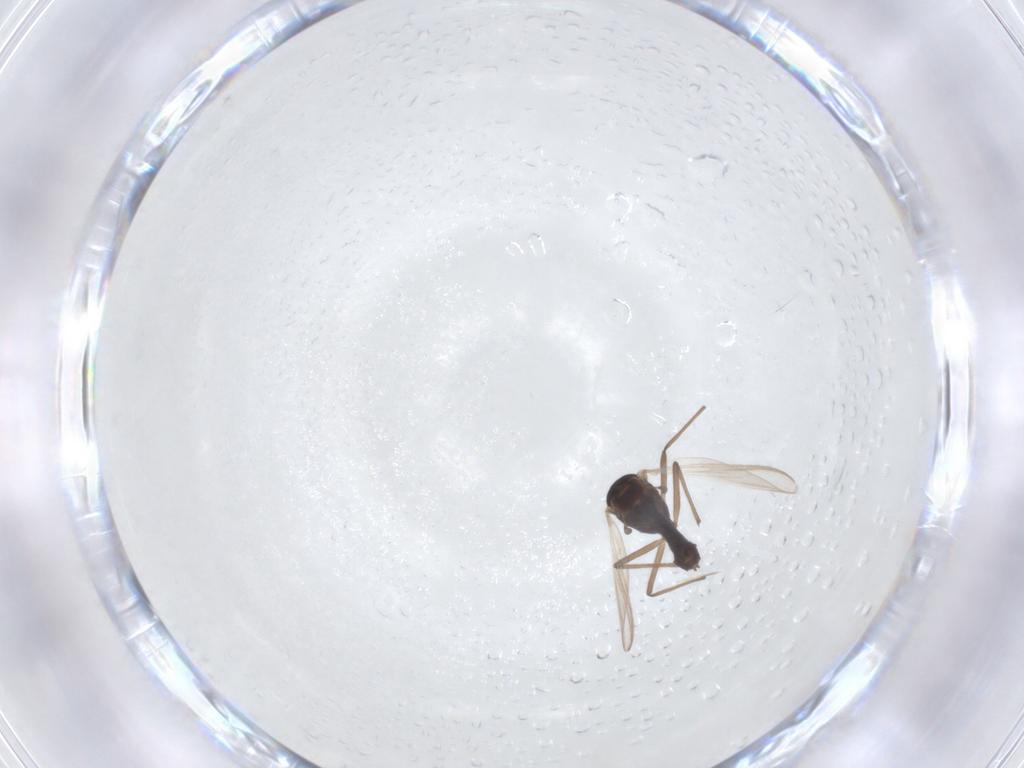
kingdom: Animalia
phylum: Arthropoda
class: Insecta
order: Diptera
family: Chironomidae
